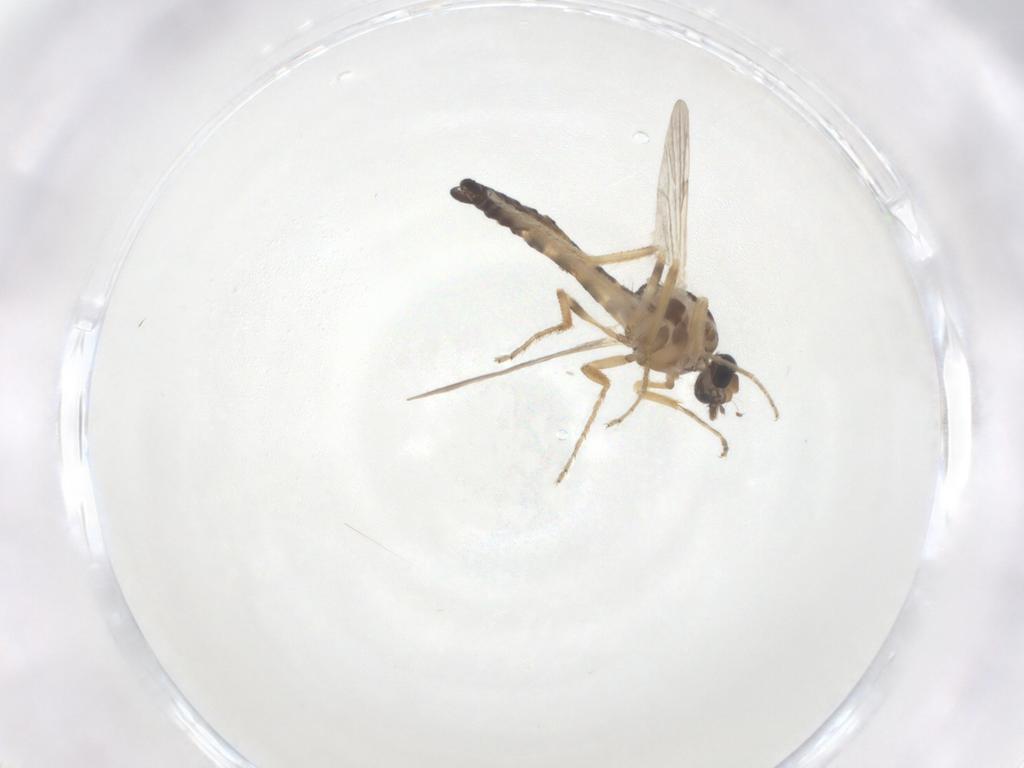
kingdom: Animalia
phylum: Arthropoda
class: Insecta
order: Diptera
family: Ceratopogonidae
